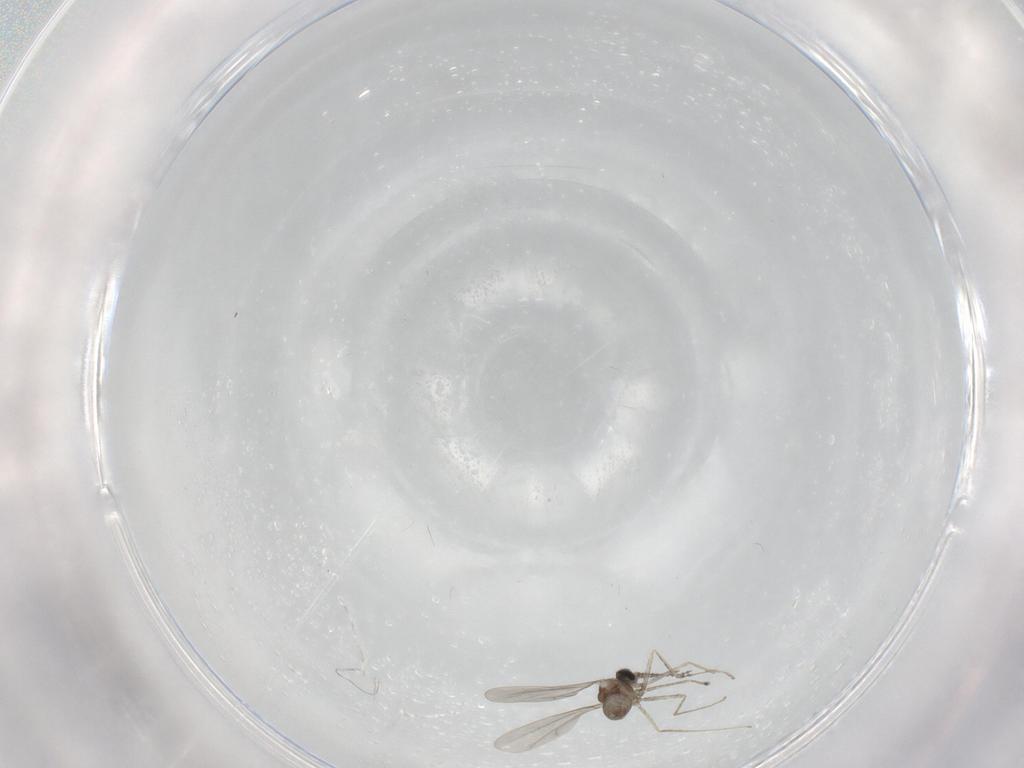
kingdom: Animalia
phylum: Arthropoda
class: Insecta
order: Diptera
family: Cecidomyiidae
